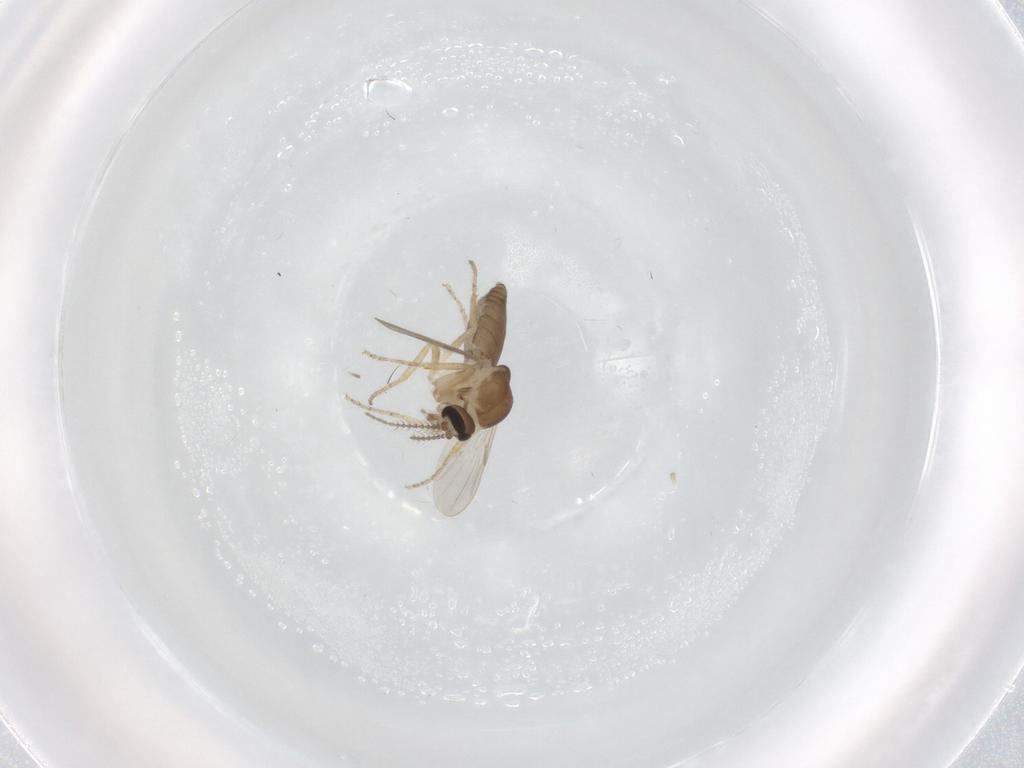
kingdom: Animalia
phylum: Arthropoda
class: Insecta
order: Diptera
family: Ceratopogonidae
